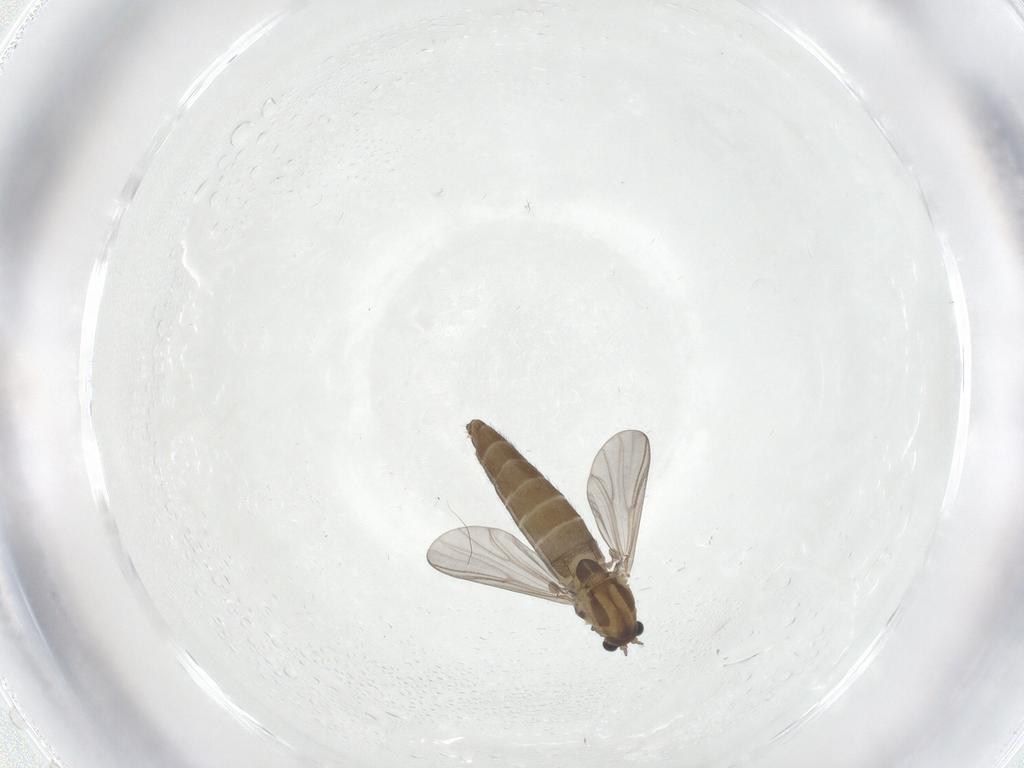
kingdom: Animalia
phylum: Arthropoda
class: Insecta
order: Diptera
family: Chironomidae
